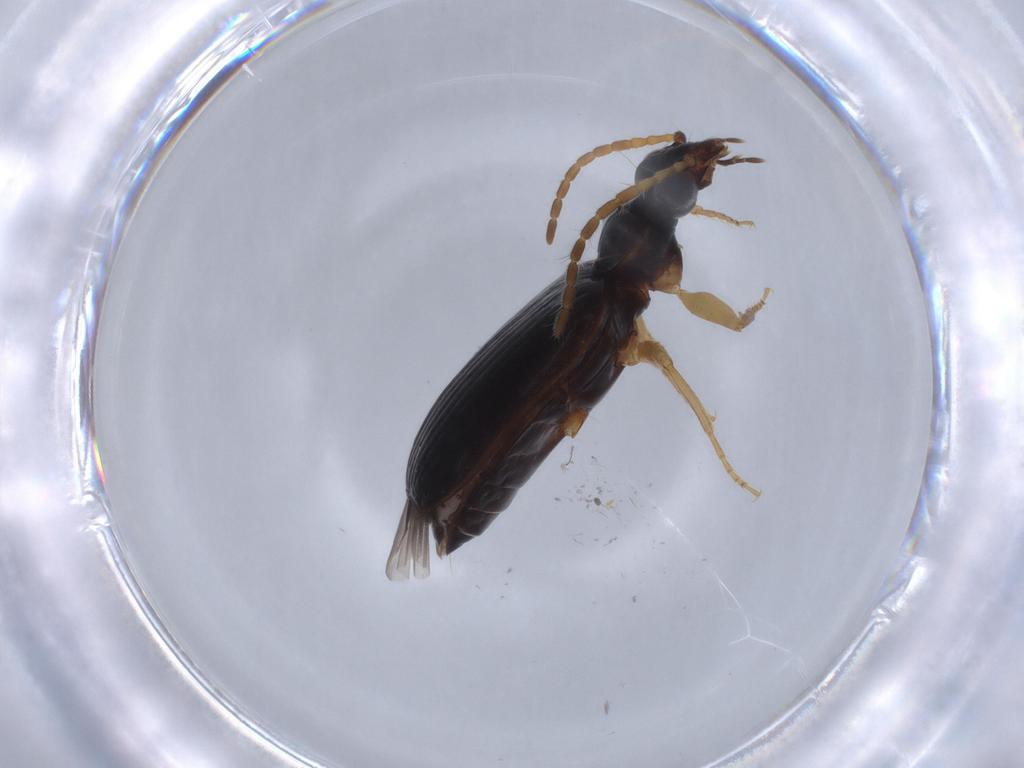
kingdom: Animalia
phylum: Arthropoda
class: Insecta
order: Coleoptera
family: Carabidae
